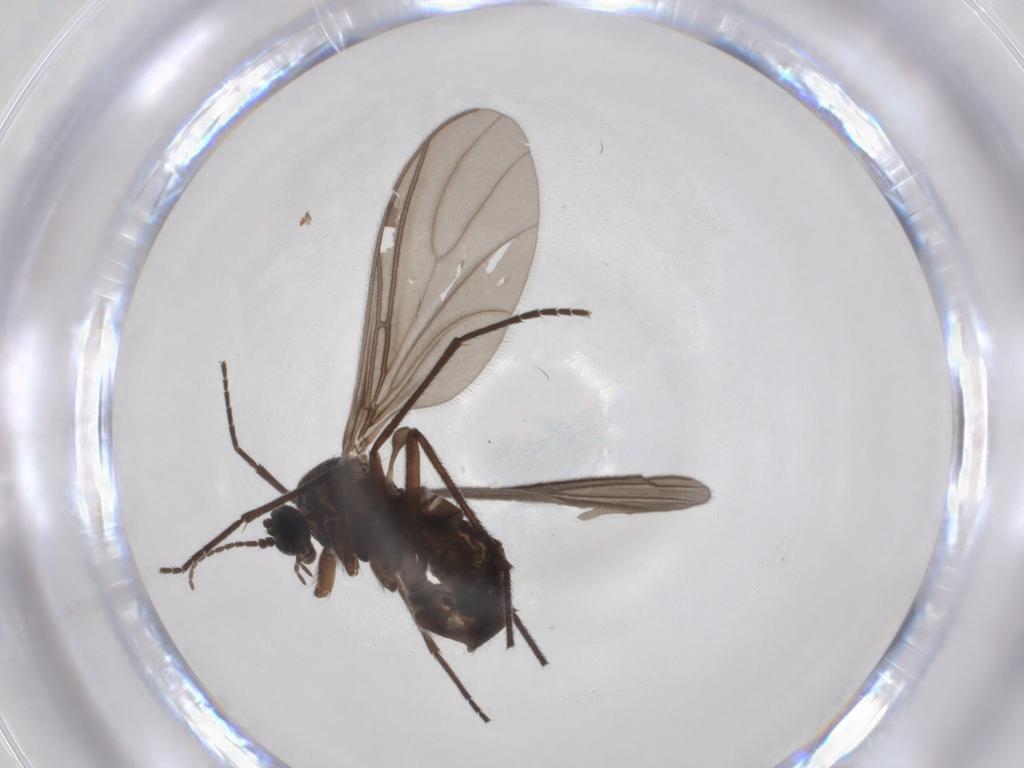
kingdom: Animalia
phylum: Arthropoda
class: Insecta
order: Diptera
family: Sciaridae
